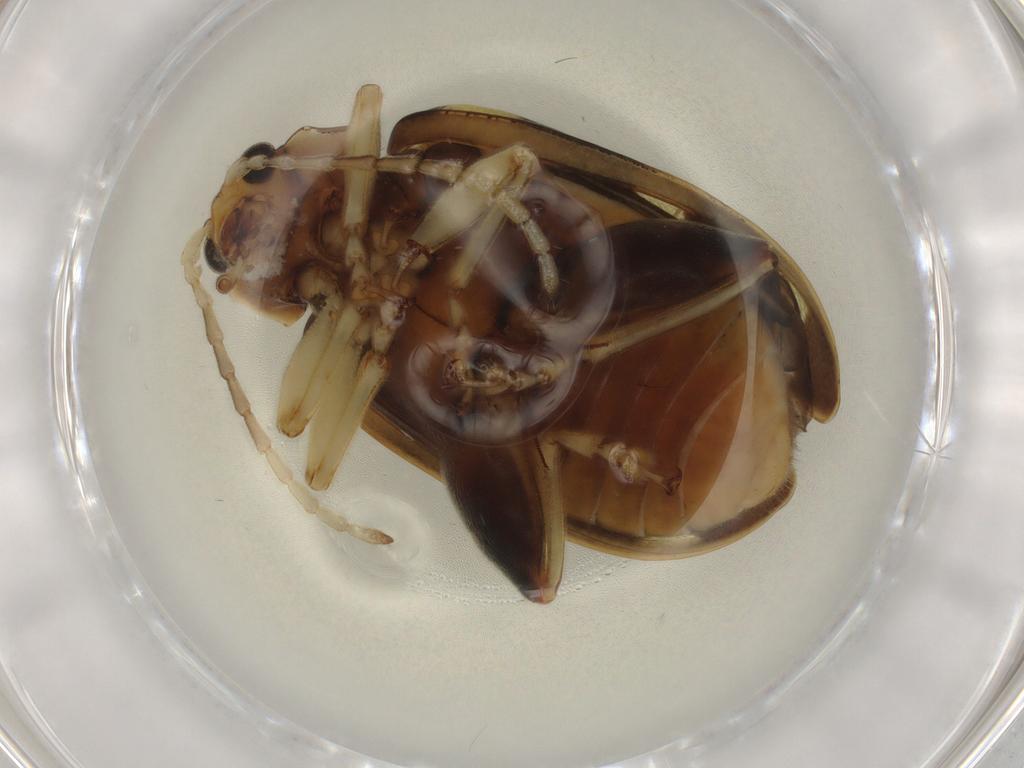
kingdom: Animalia
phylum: Arthropoda
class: Insecta
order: Coleoptera
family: Chrysomelidae
